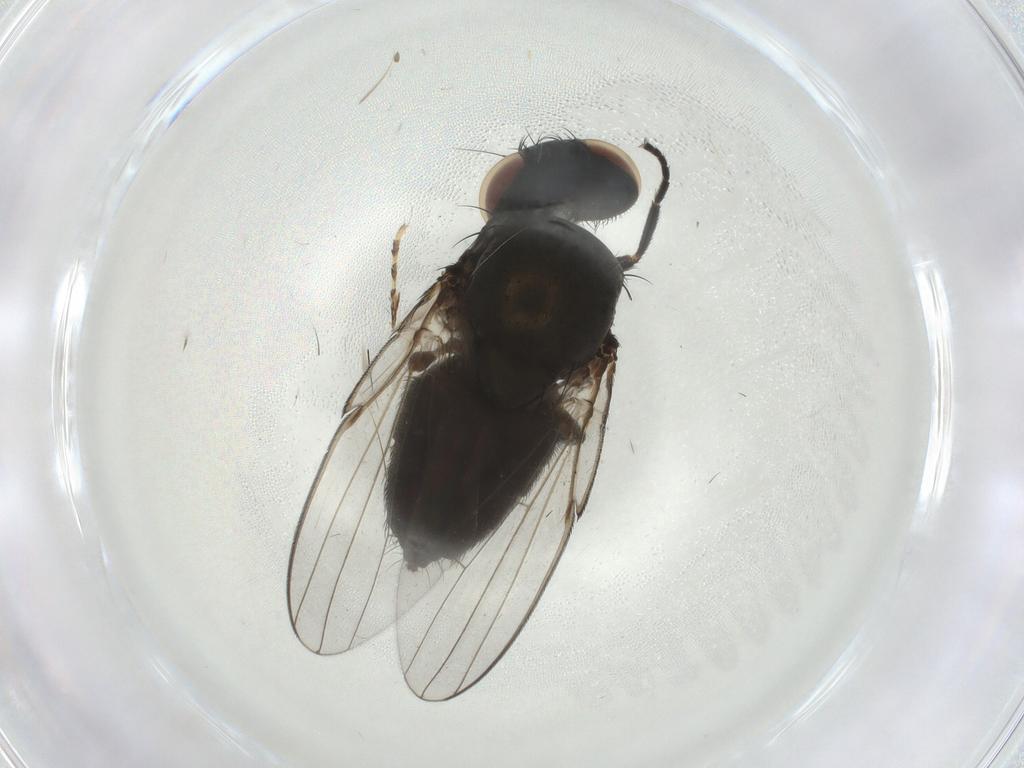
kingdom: Animalia
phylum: Arthropoda
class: Insecta
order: Diptera
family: Milichiidae
